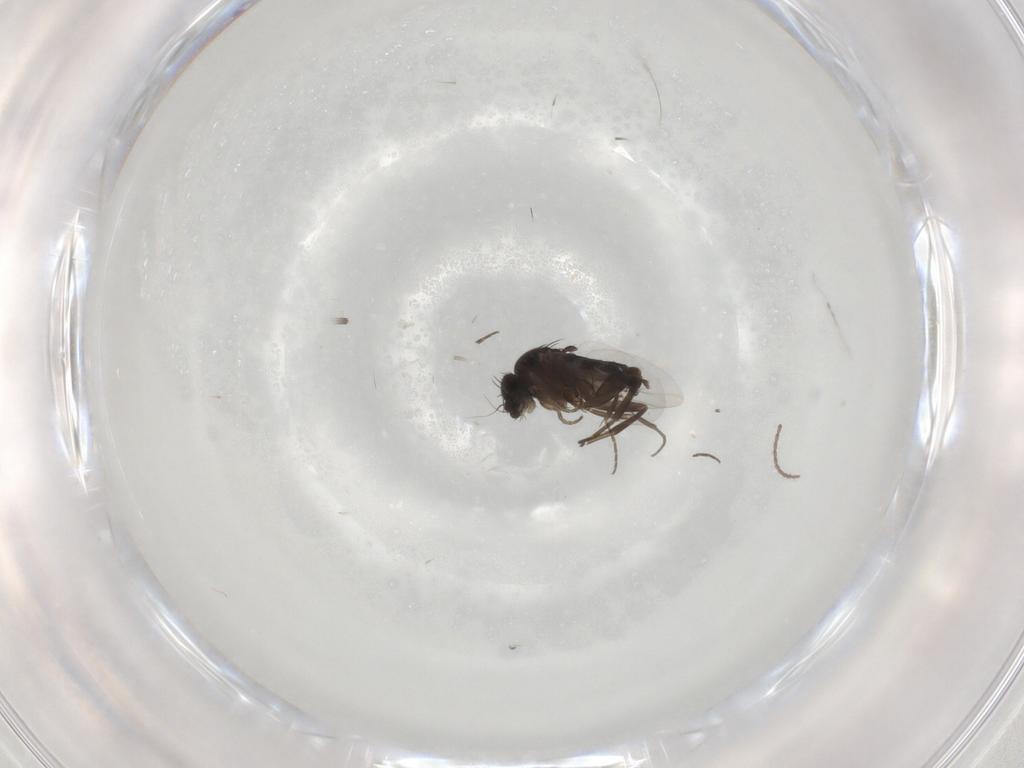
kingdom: Animalia
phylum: Arthropoda
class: Insecta
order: Diptera
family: Phoridae
